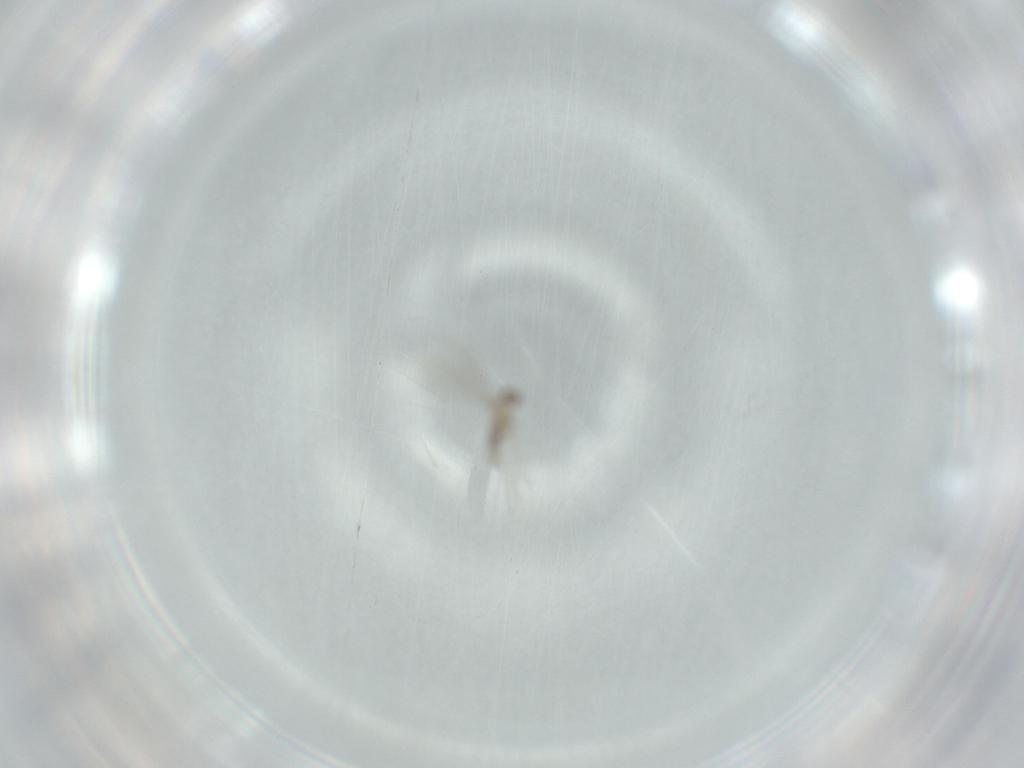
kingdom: Animalia
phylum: Arthropoda
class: Insecta
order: Diptera
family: Cecidomyiidae
